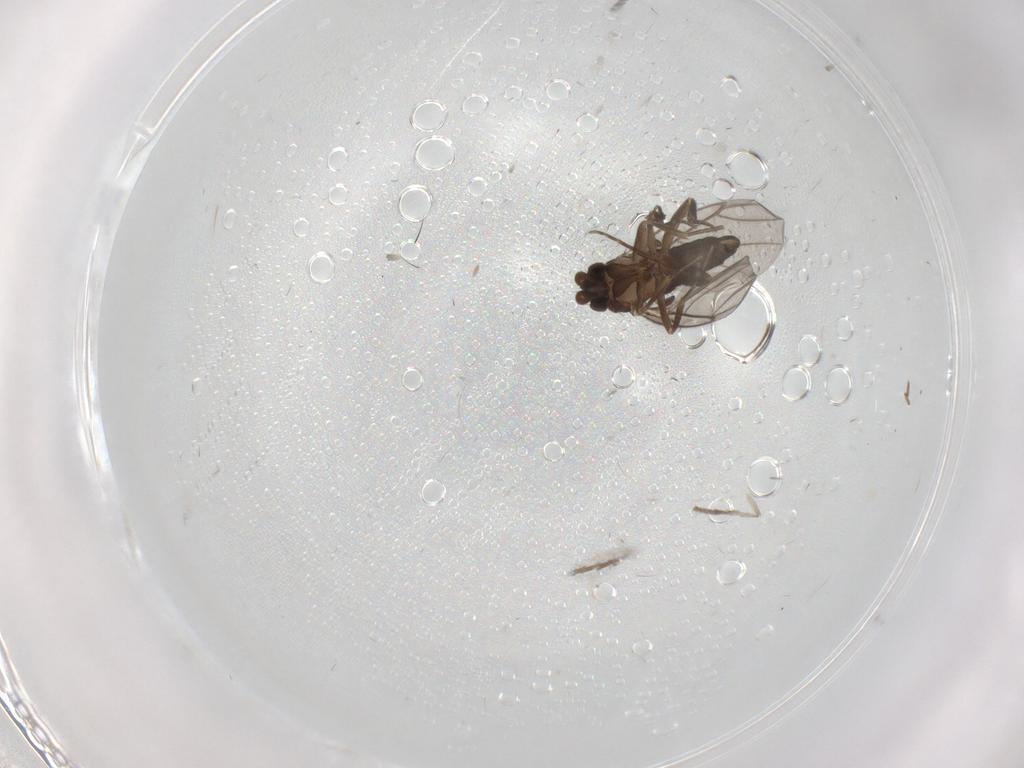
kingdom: Animalia
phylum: Arthropoda
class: Insecta
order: Diptera
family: Sciaridae
